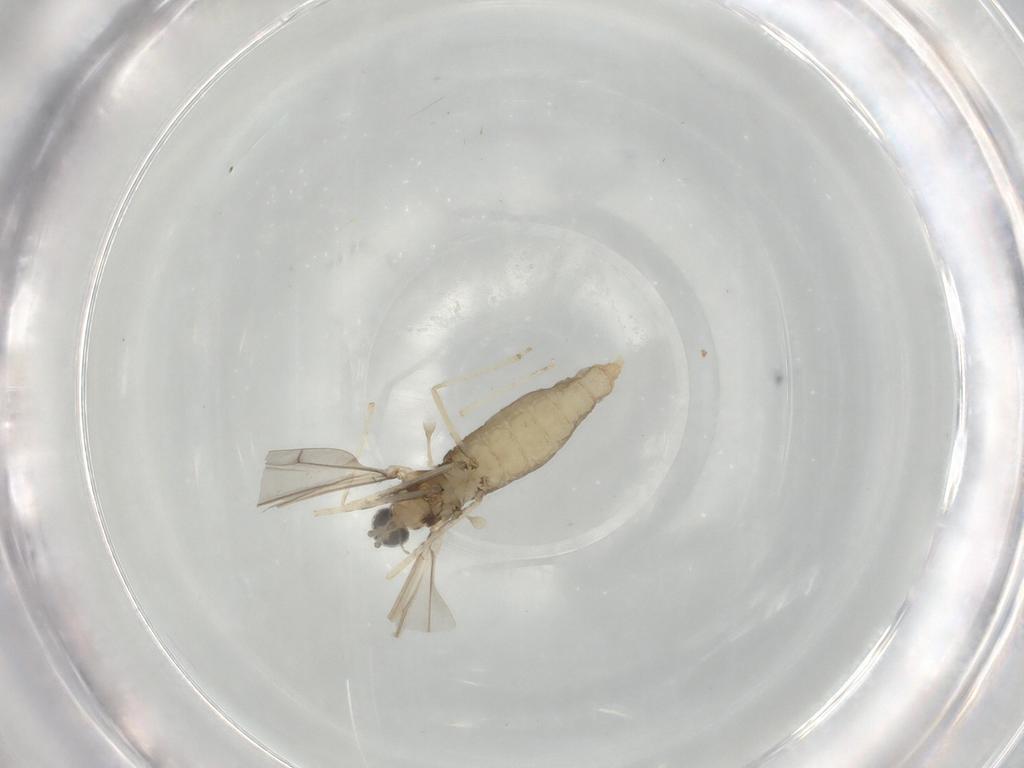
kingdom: Animalia
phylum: Arthropoda
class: Insecta
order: Diptera
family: Cecidomyiidae
